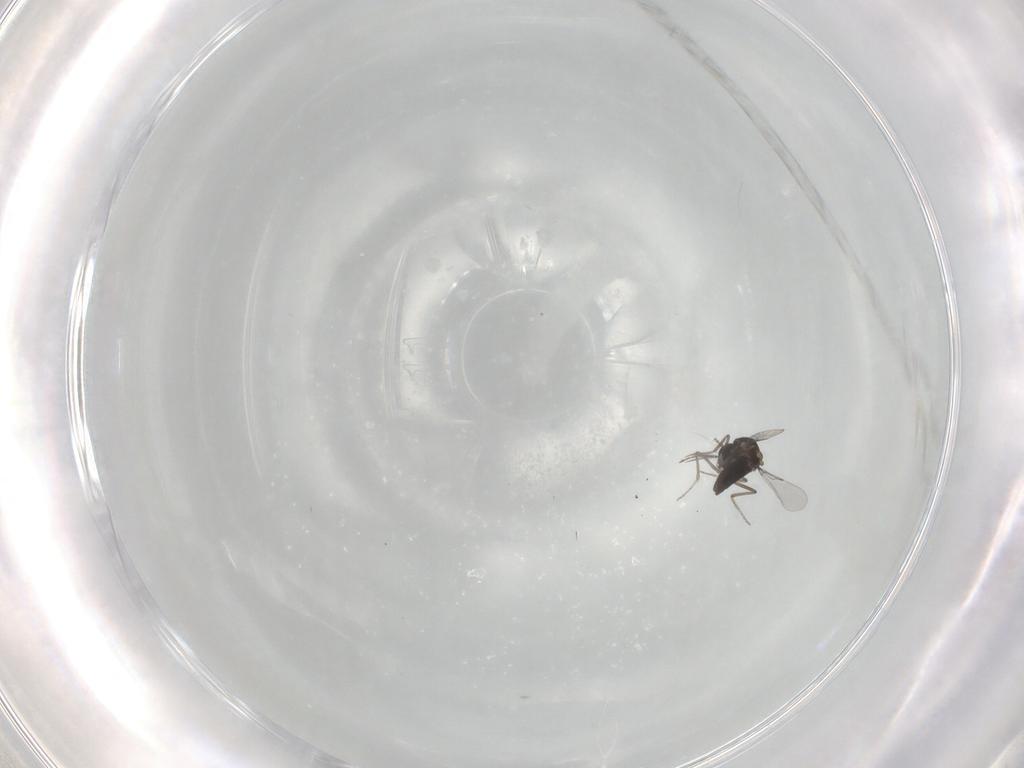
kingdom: Animalia
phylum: Arthropoda
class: Insecta
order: Diptera
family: Ceratopogonidae
